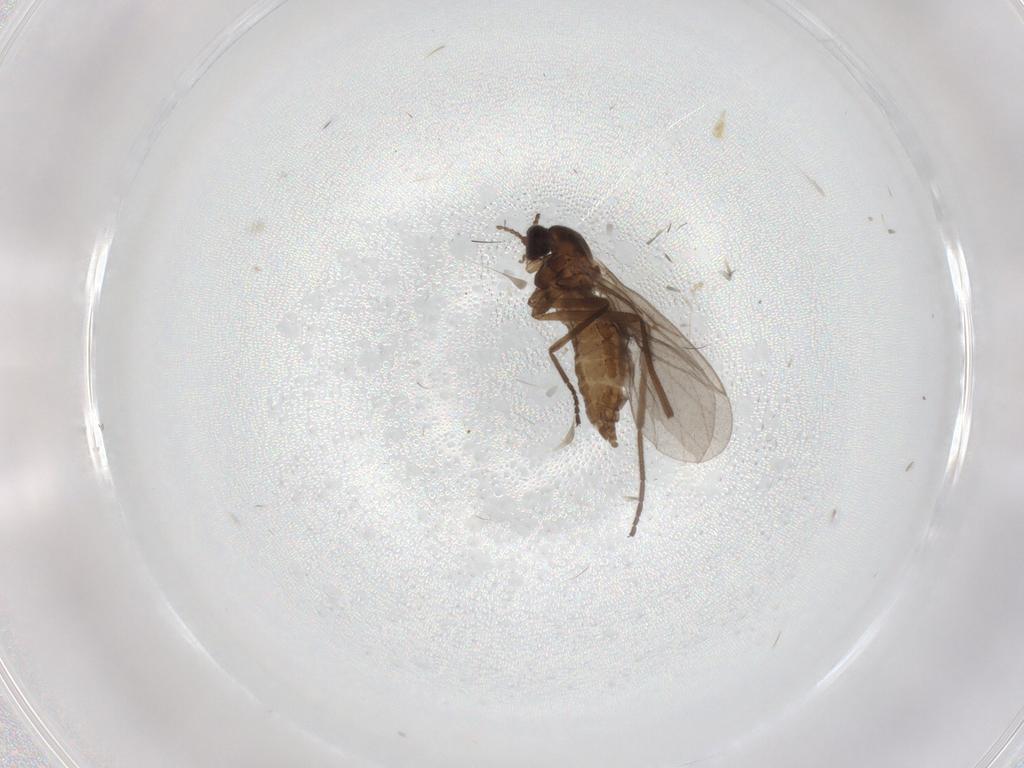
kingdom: Animalia
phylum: Arthropoda
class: Insecta
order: Diptera
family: Cecidomyiidae
